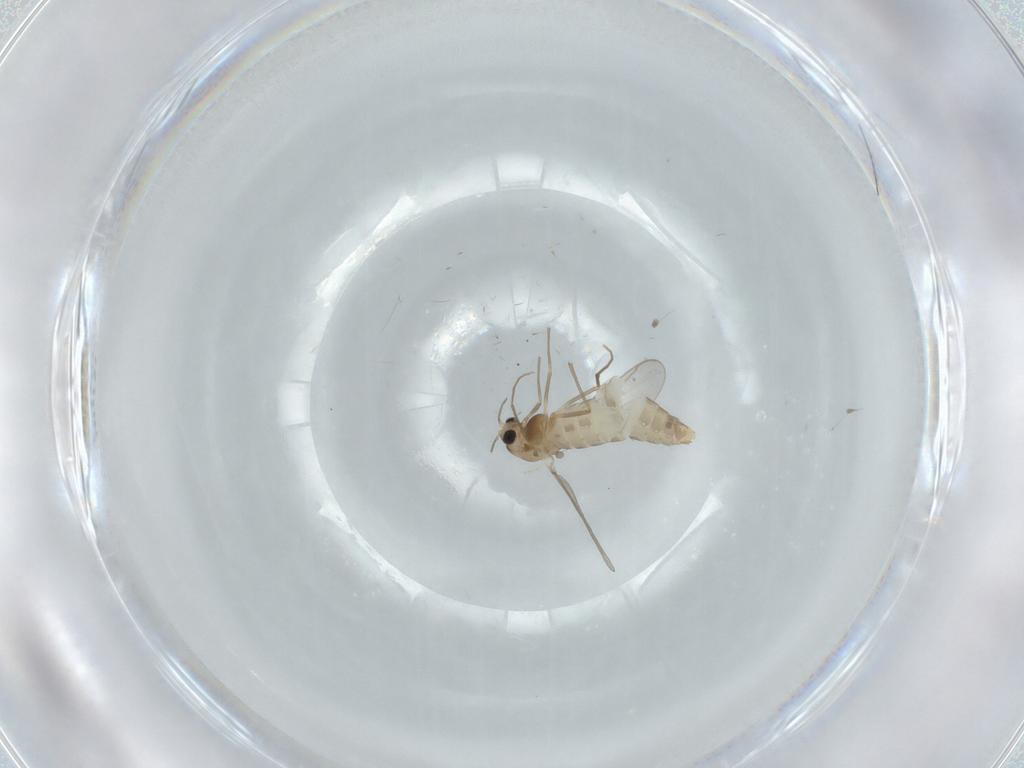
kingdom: Animalia
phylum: Arthropoda
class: Insecta
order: Diptera
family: Chironomidae
